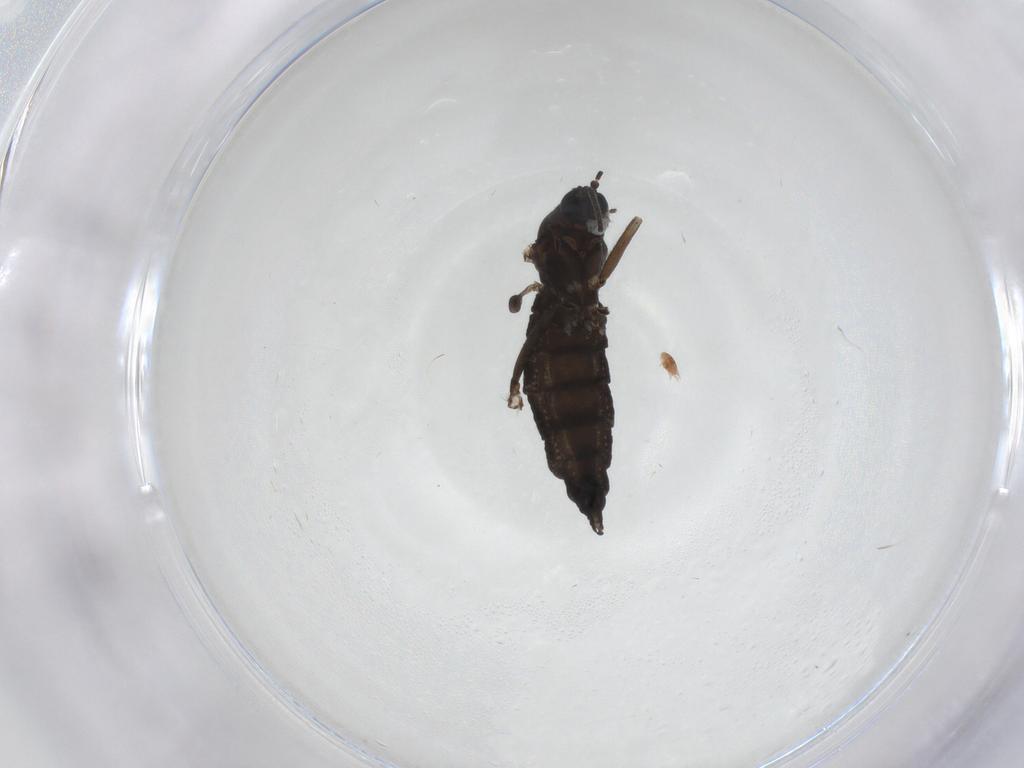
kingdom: Animalia
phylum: Arthropoda
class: Insecta
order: Diptera
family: Sciaridae
